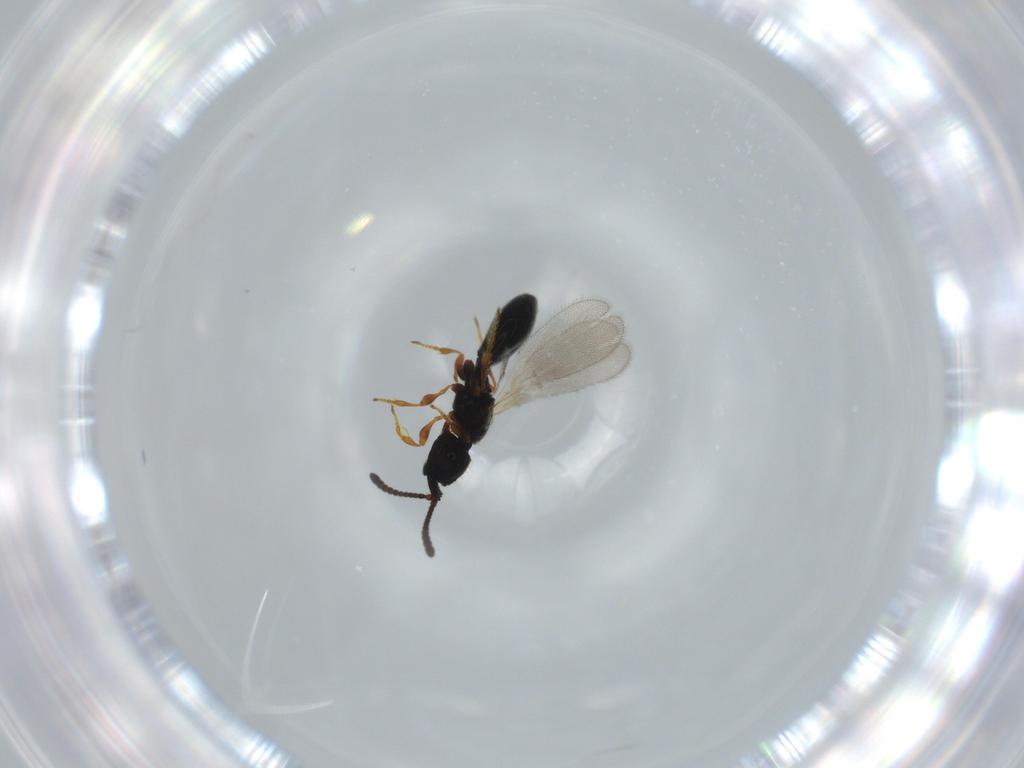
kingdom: Animalia
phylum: Arthropoda
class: Insecta
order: Hymenoptera
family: Diapriidae
